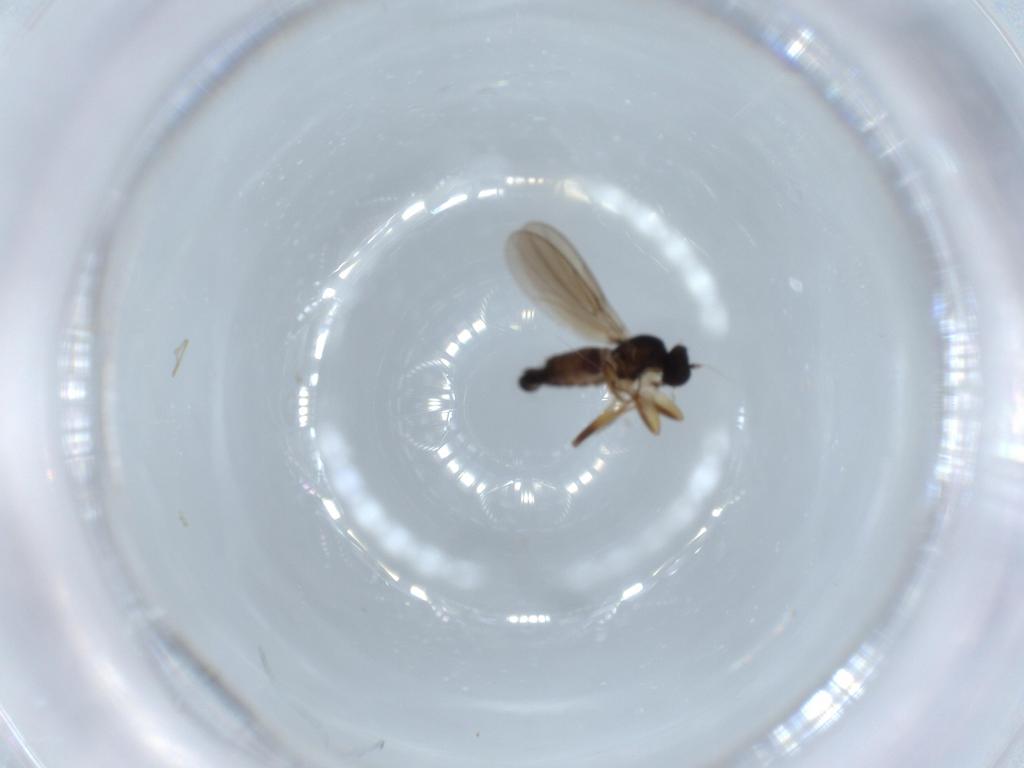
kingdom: Animalia
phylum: Arthropoda
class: Insecta
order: Diptera
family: Hybotidae
